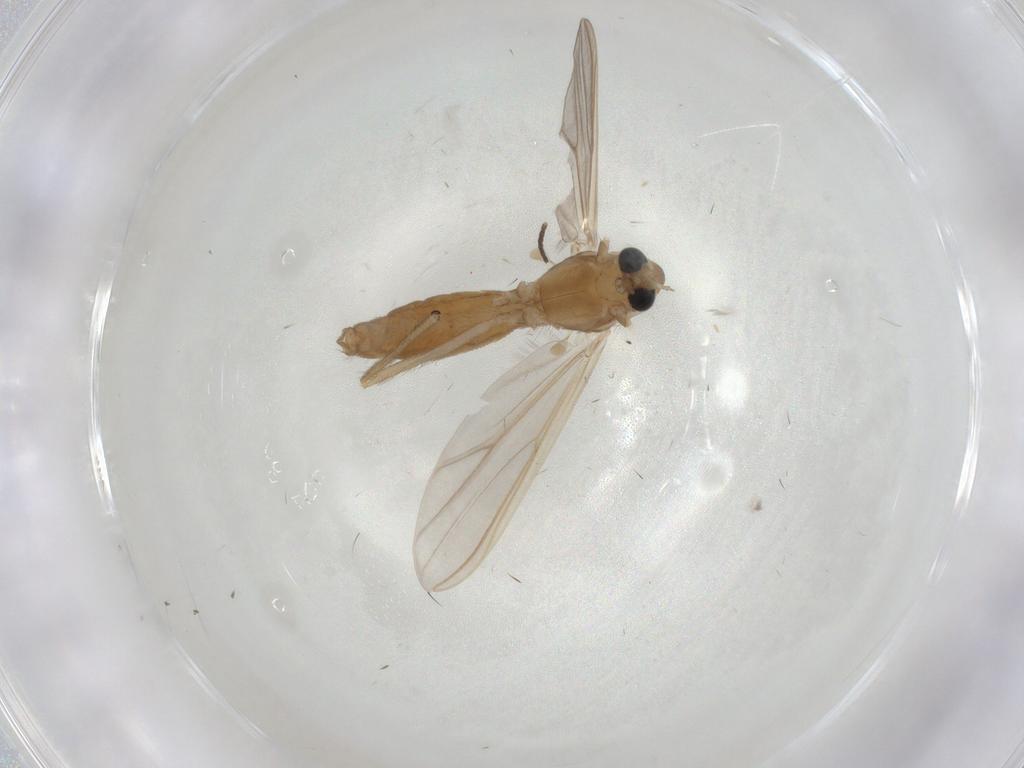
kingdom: Animalia
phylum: Arthropoda
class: Insecta
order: Diptera
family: Chironomidae
